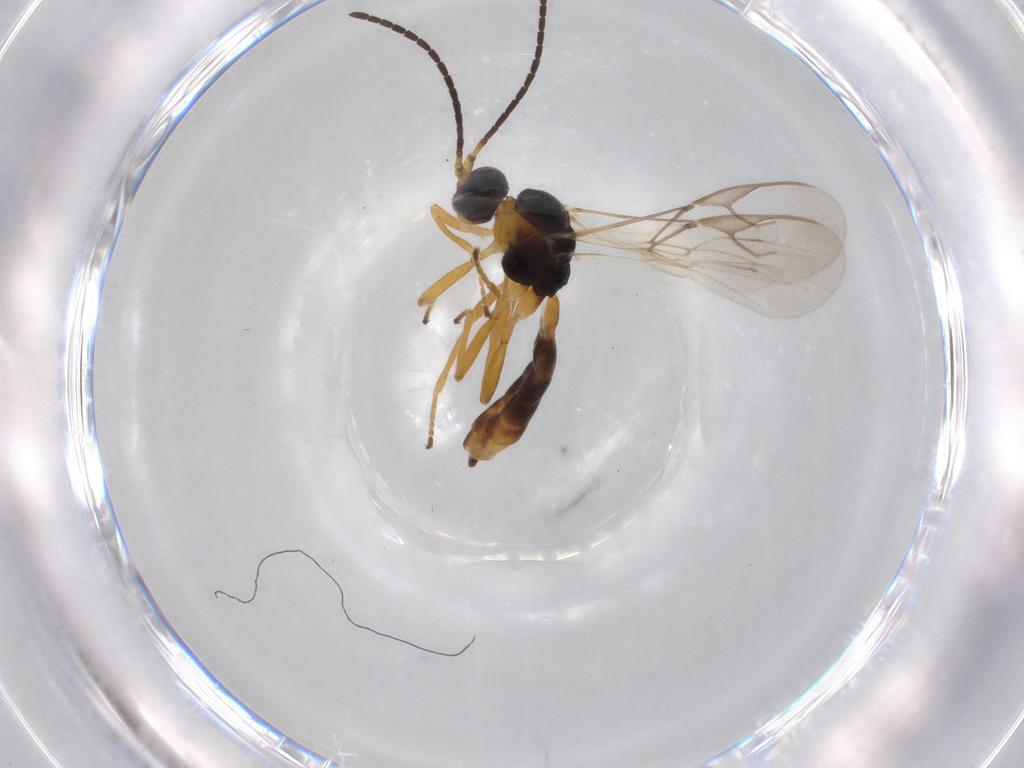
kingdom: Animalia
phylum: Arthropoda
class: Insecta
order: Hymenoptera
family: Braconidae
